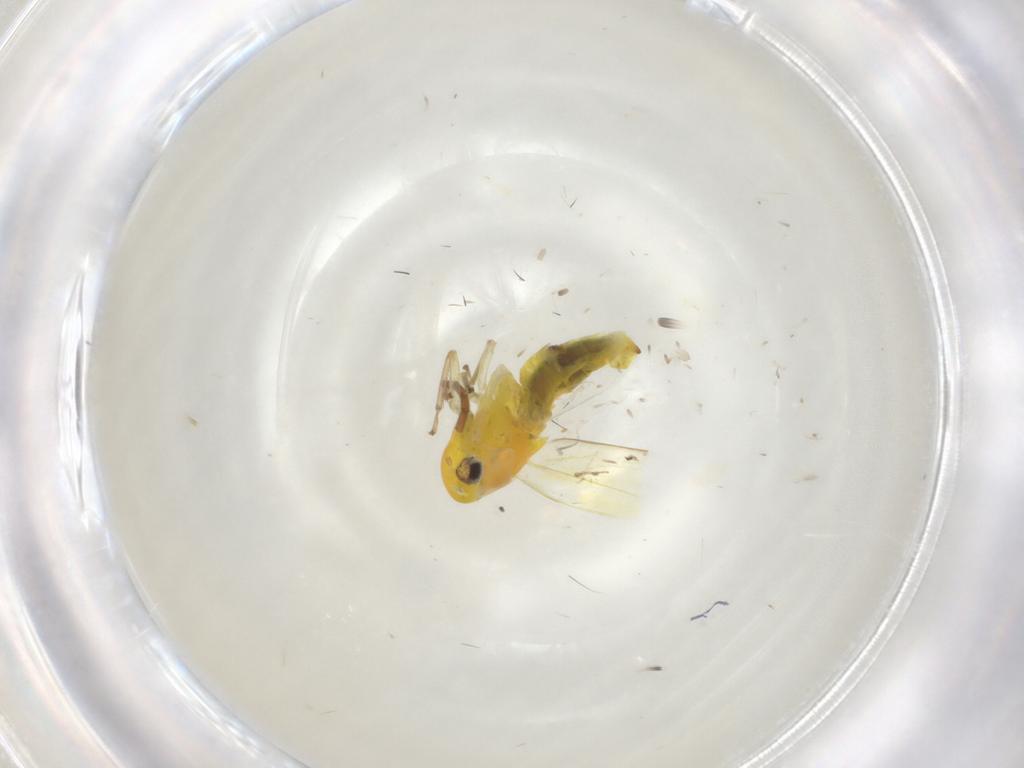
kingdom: Animalia
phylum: Arthropoda
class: Insecta
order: Hemiptera
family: Cicadellidae
